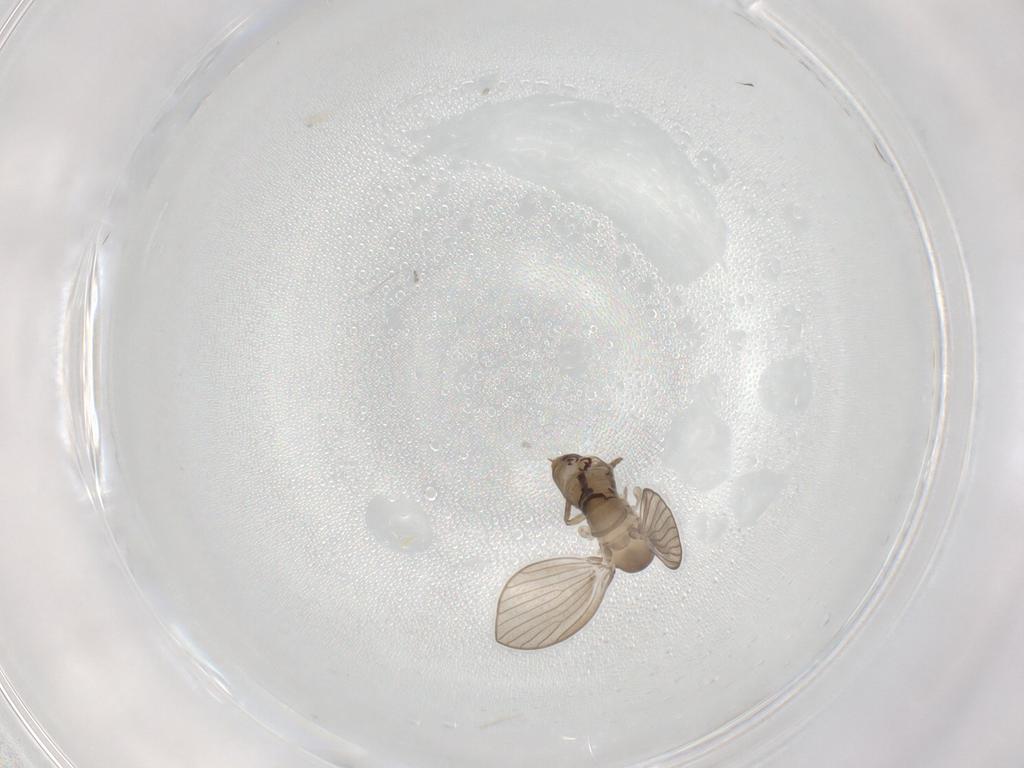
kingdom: Animalia
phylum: Arthropoda
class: Insecta
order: Diptera
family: Psychodidae
